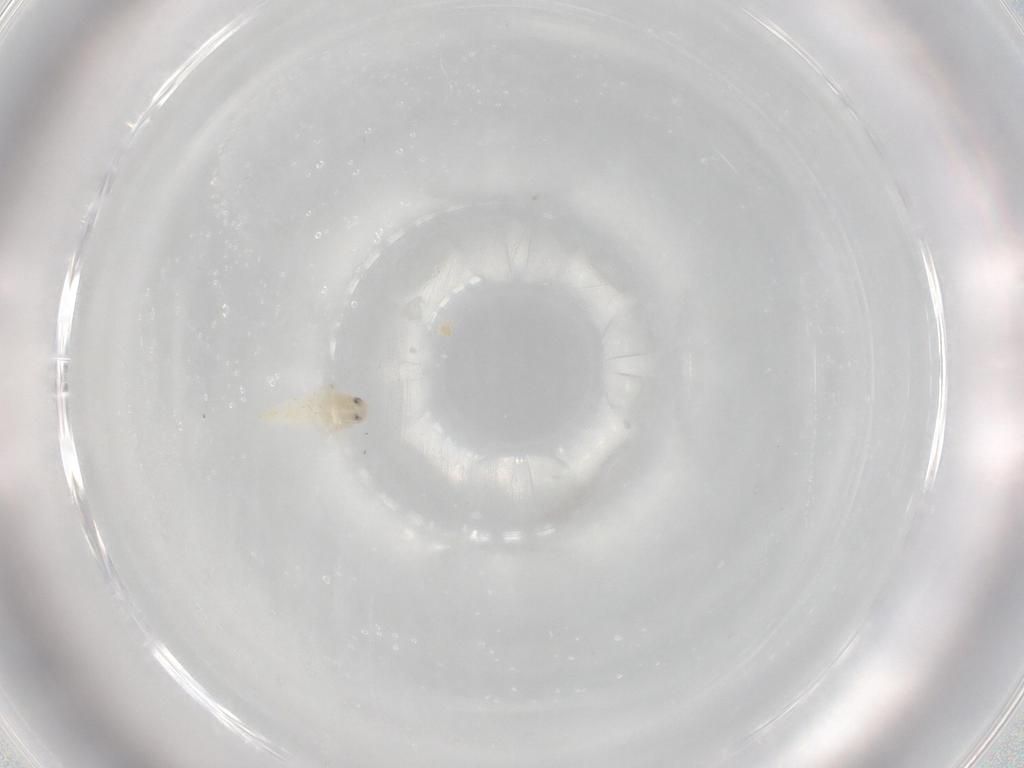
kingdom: Animalia
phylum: Arthropoda
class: Insecta
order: Hemiptera
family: Aleyrodidae
